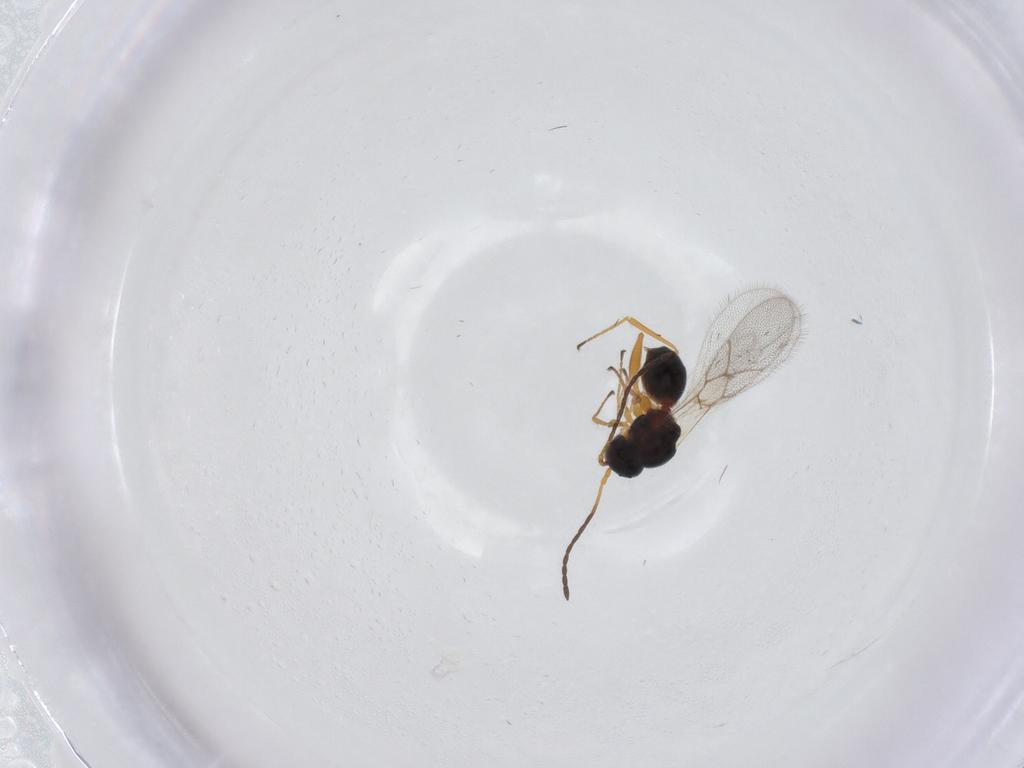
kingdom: Animalia
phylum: Arthropoda
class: Insecta
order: Hymenoptera
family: Figitidae
